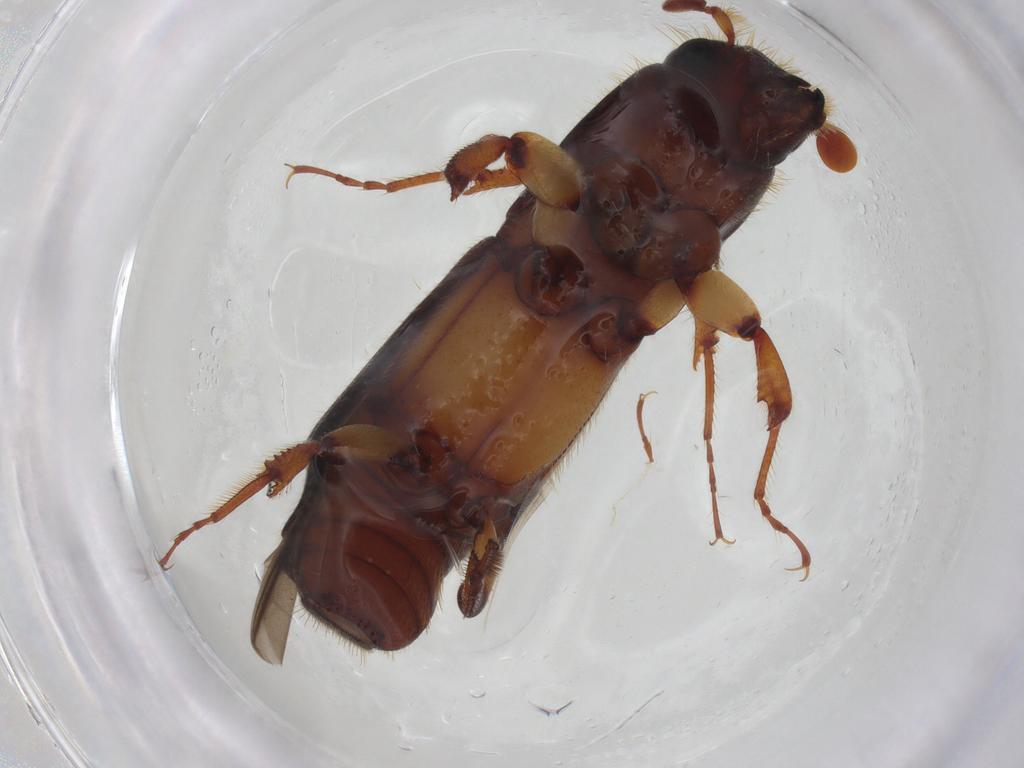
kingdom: Animalia
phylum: Arthropoda
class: Insecta
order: Coleoptera
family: Curculionidae
